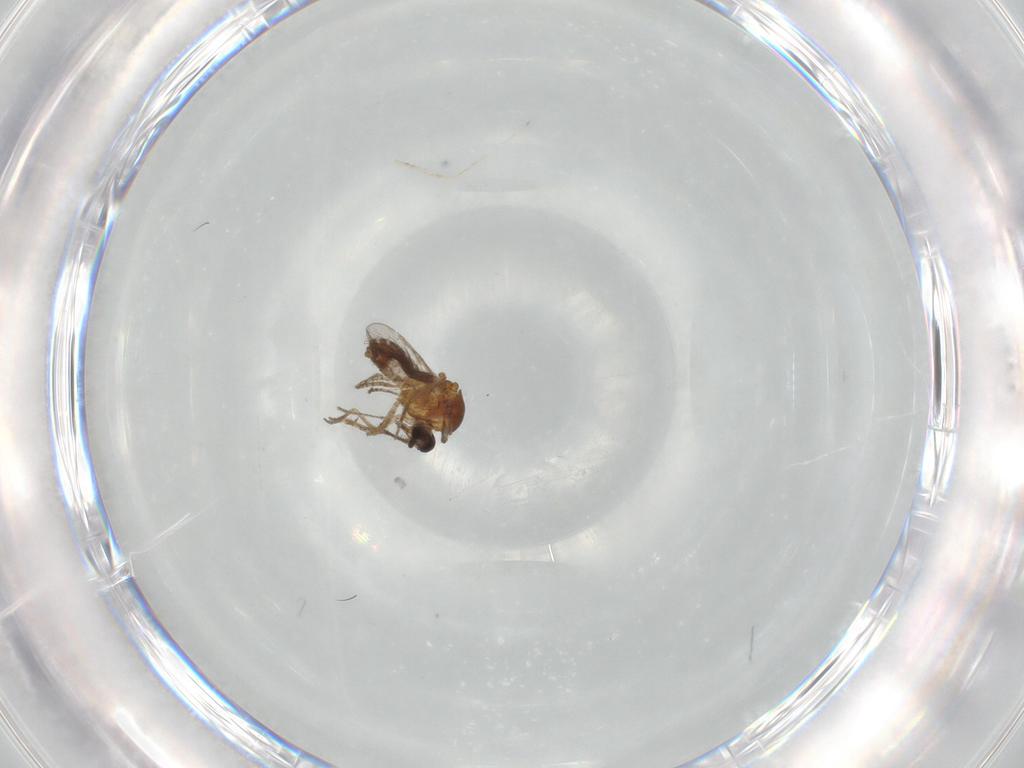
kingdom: Animalia
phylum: Arthropoda
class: Insecta
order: Diptera
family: Ceratopogonidae
